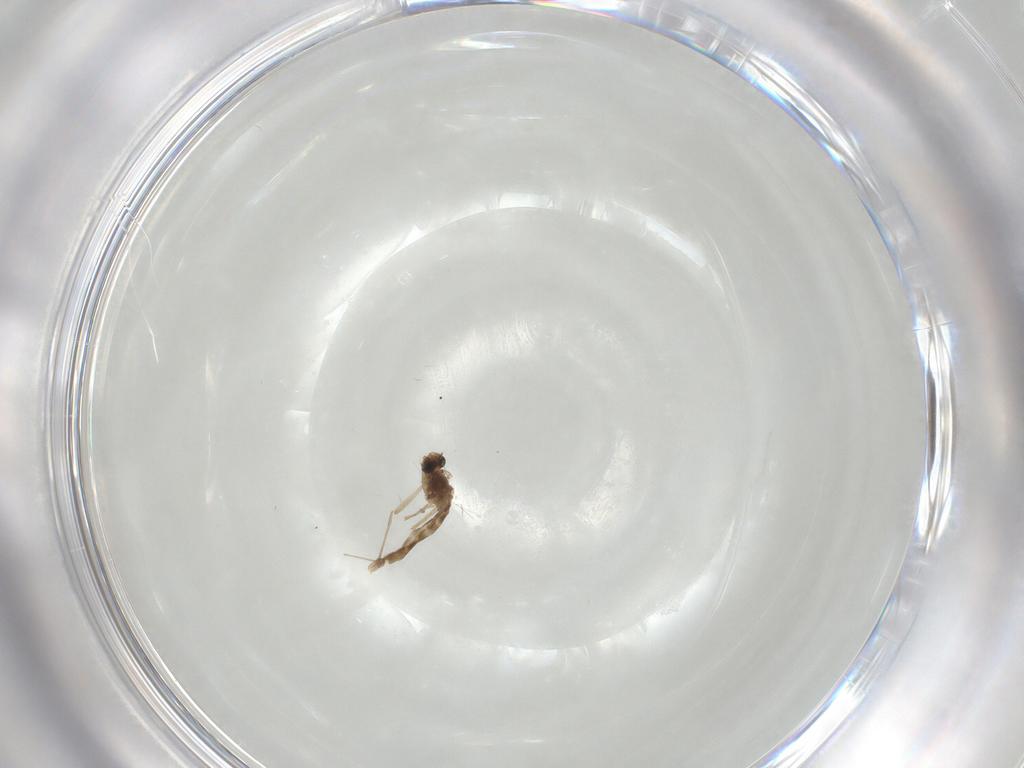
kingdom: Animalia
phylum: Arthropoda
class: Insecta
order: Diptera
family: Chironomidae
